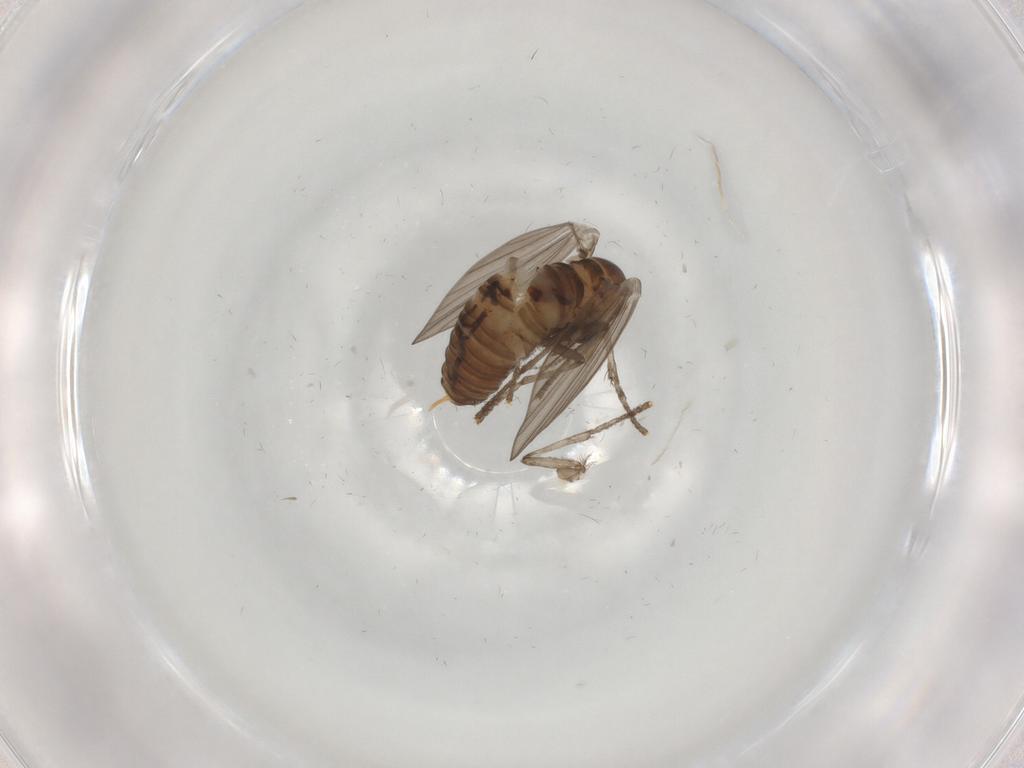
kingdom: Animalia
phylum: Arthropoda
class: Insecta
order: Diptera
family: Psychodidae
